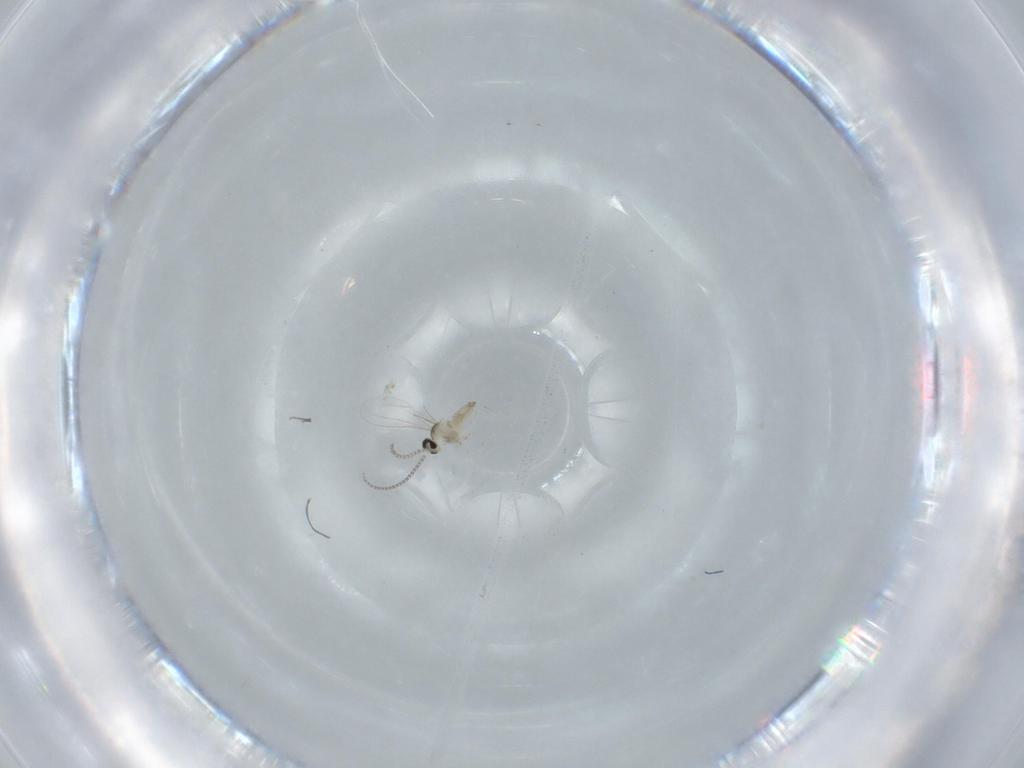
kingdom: Animalia
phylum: Arthropoda
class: Insecta
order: Diptera
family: Cecidomyiidae
